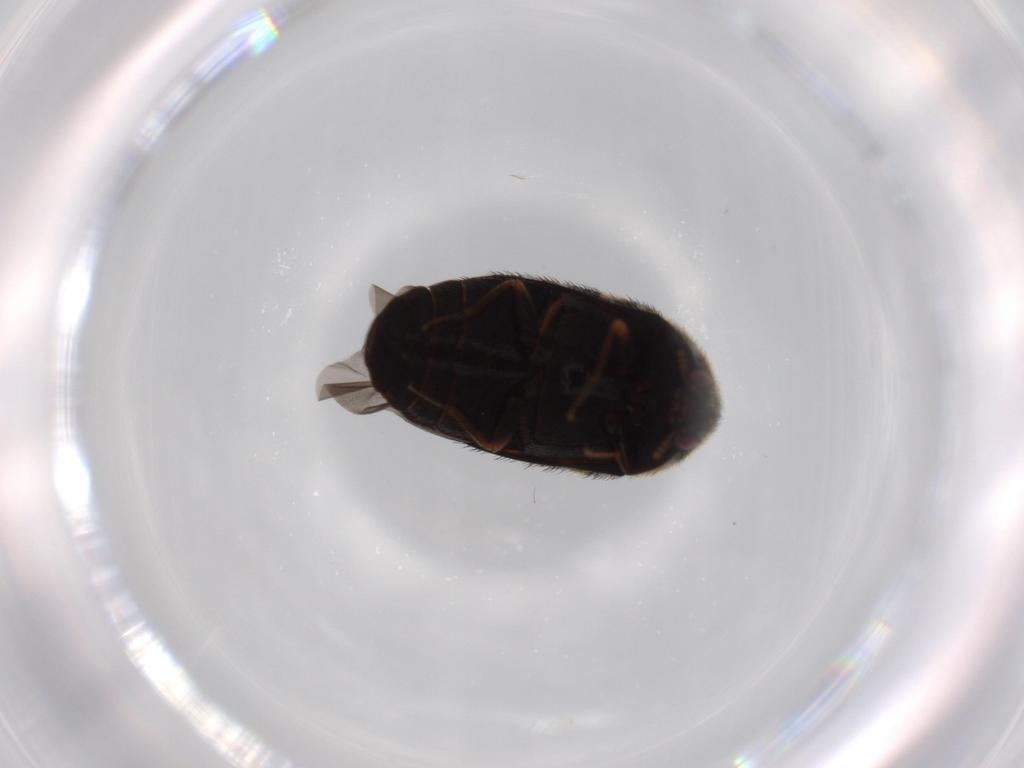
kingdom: Animalia
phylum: Arthropoda
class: Insecta
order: Coleoptera
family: Dermestidae
